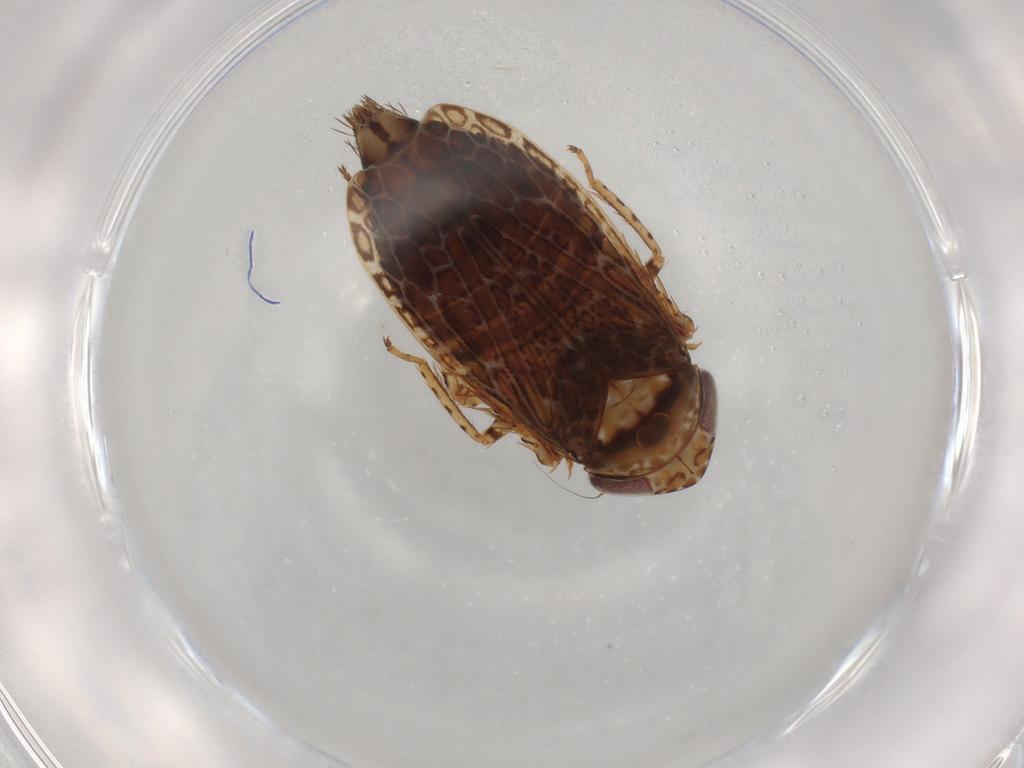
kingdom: Animalia
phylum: Arthropoda
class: Insecta
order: Hemiptera
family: Cicadellidae
